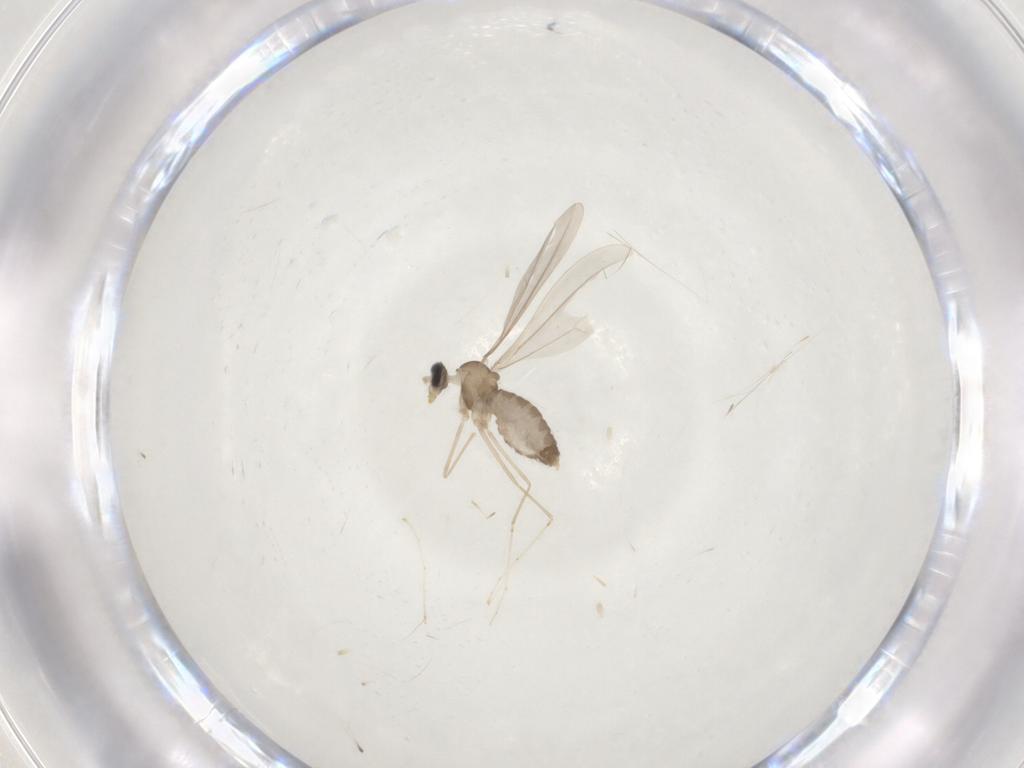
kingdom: Animalia
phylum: Arthropoda
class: Insecta
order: Diptera
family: Cecidomyiidae
